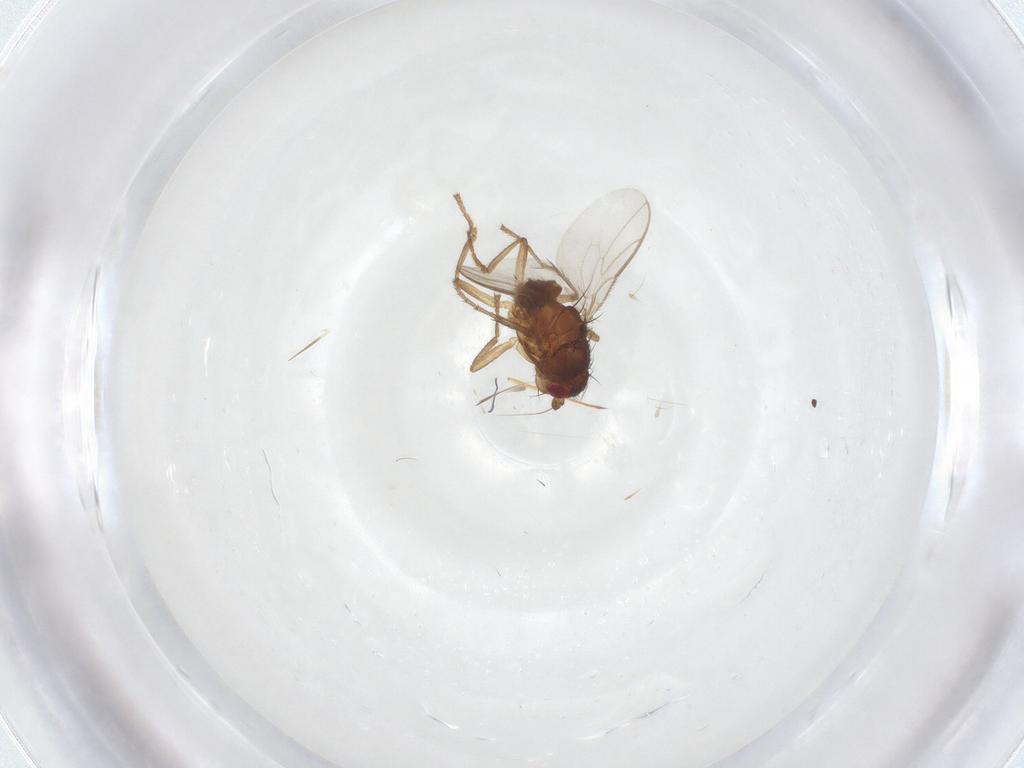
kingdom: Animalia
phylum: Arthropoda
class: Insecta
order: Diptera
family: Sphaeroceridae
